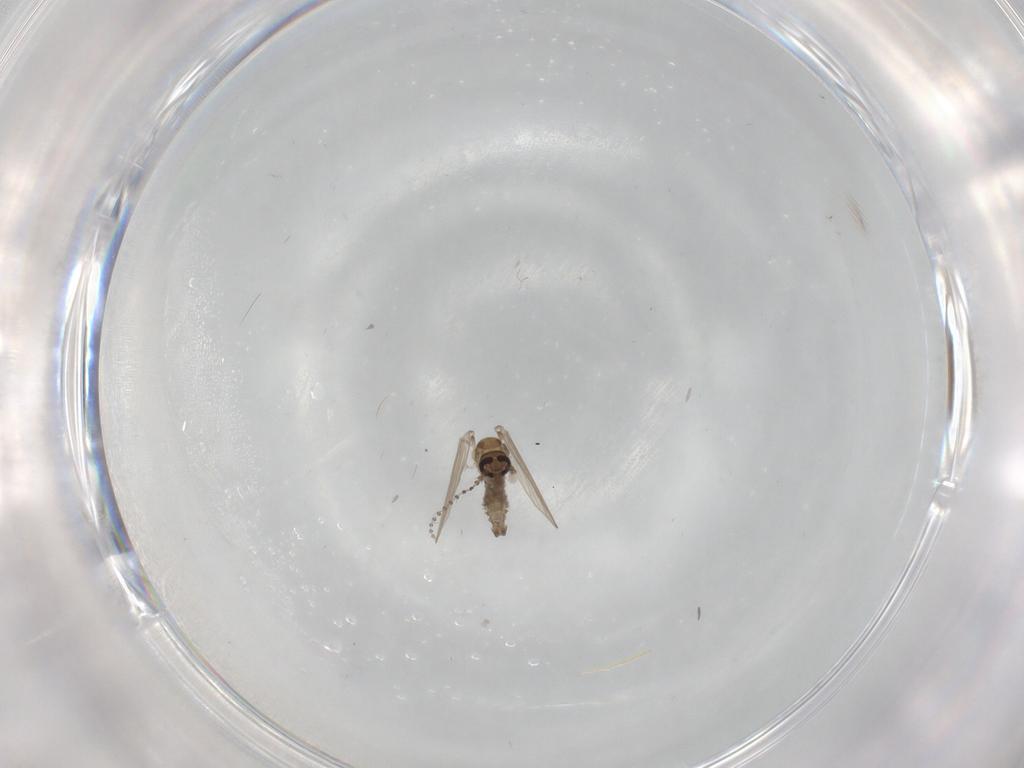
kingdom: Animalia
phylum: Arthropoda
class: Insecta
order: Diptera
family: Psychodidae
